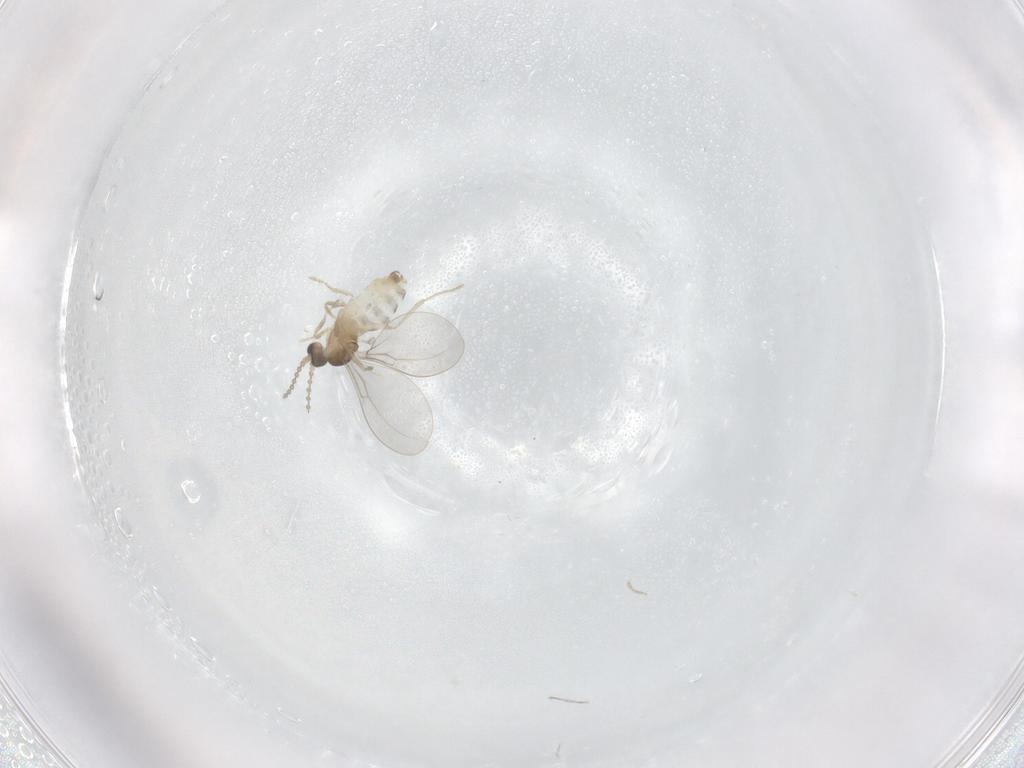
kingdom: Animalia
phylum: Arthropoda
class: Insecta
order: Diptera
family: Cecidomyiidae
